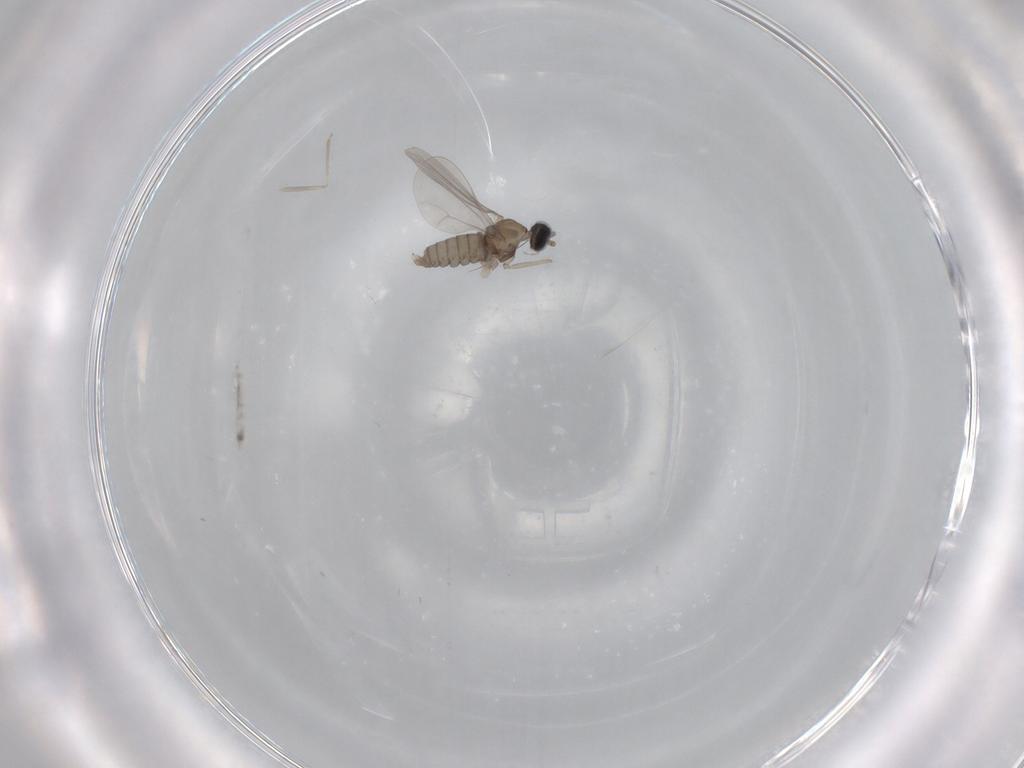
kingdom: Animalia
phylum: Arthropoda
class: Insecta
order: Diptera
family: Cecidomyiidae
